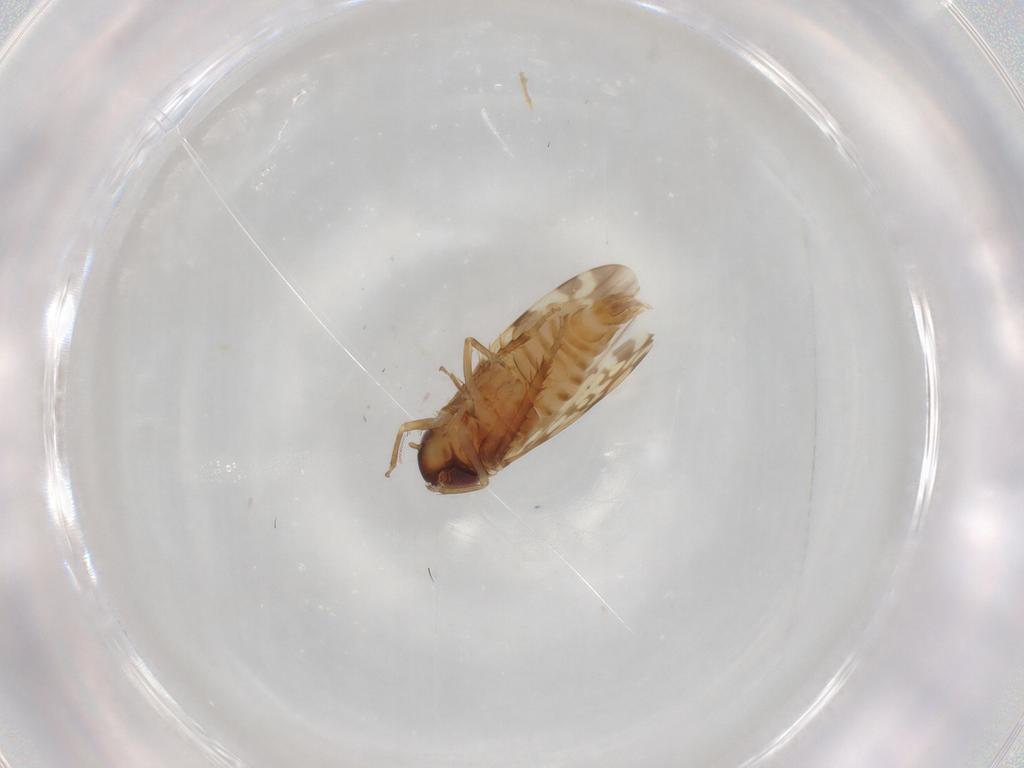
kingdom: Animalia
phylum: Arthropoda
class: Insecta
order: Hemiptera
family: Cicadellidae
